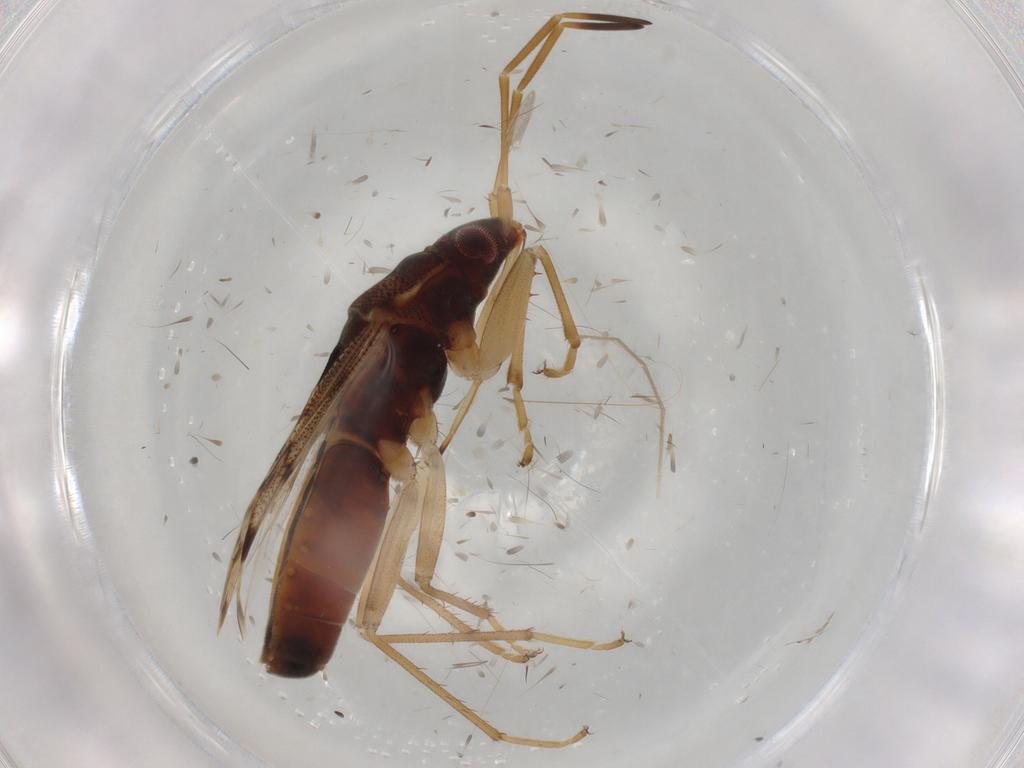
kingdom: Animalia
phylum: Arthropoda
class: Insecta
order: Hemiptera
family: Rhyparochromidae
